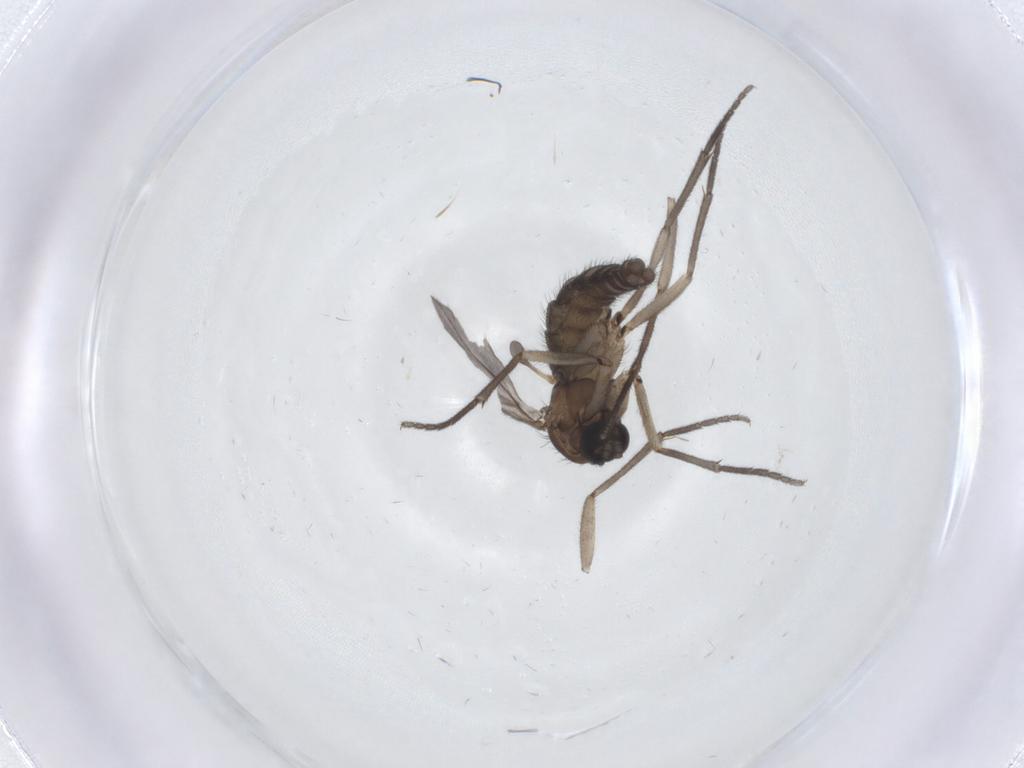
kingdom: Animalia
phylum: Arthropoda
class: Insecta
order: Diptera
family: Sciaridae
